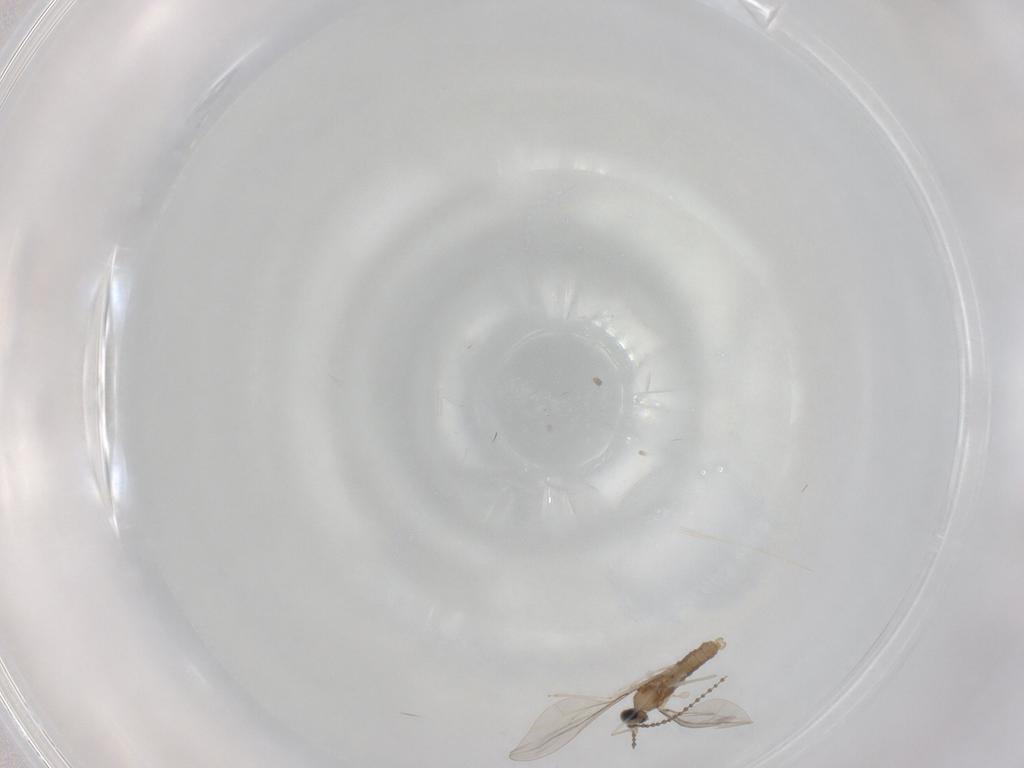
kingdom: Animalia
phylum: Arthropoda
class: Insecta
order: Diptera
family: Cecidomyiidae
